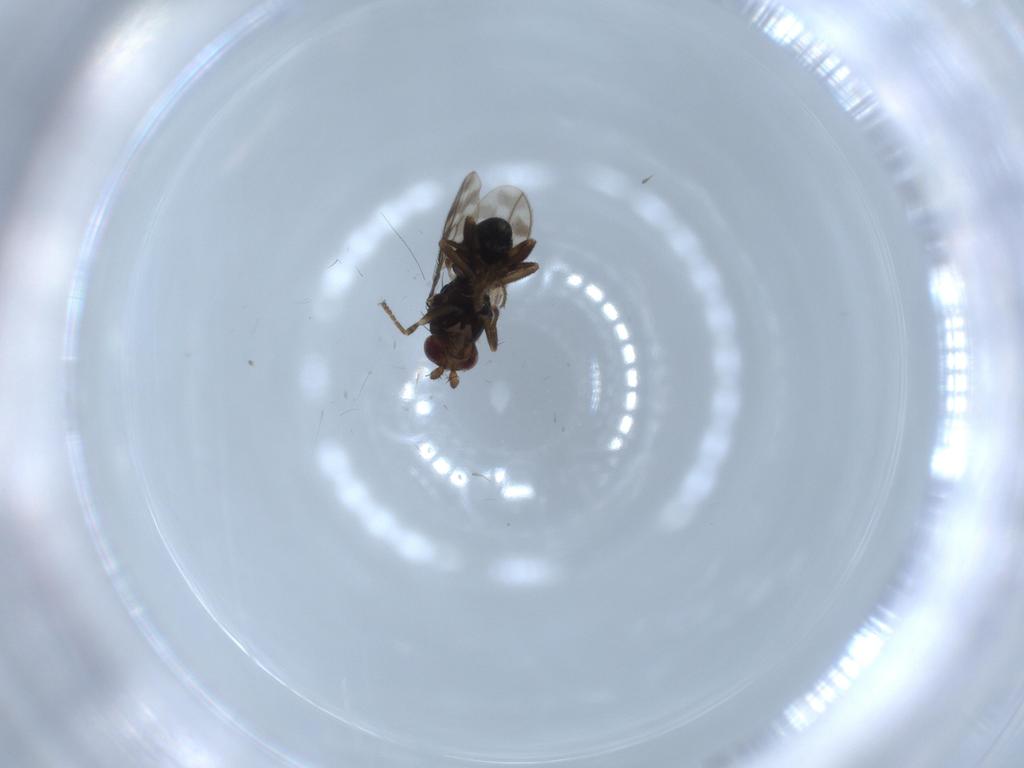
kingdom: Animalia
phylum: Arthropoda
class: Insecta
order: Diptera
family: Sphaeroceridae
